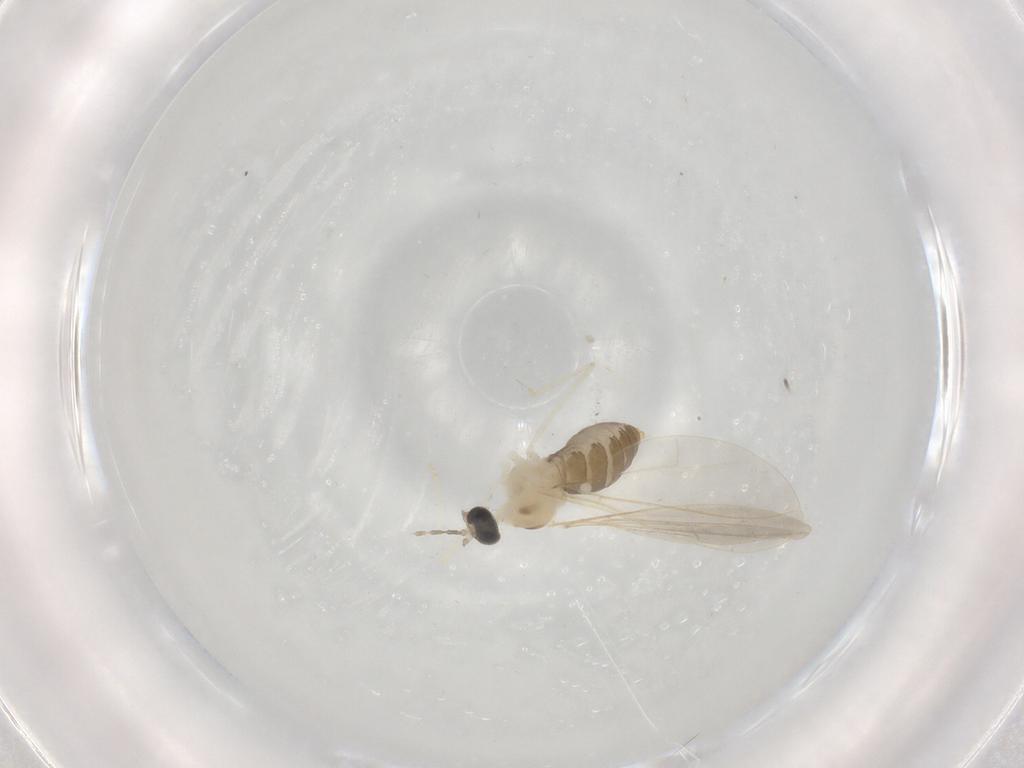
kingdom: Animalia
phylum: Arthropoda
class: Insecta
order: Diptera
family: Cecidomyiidae
